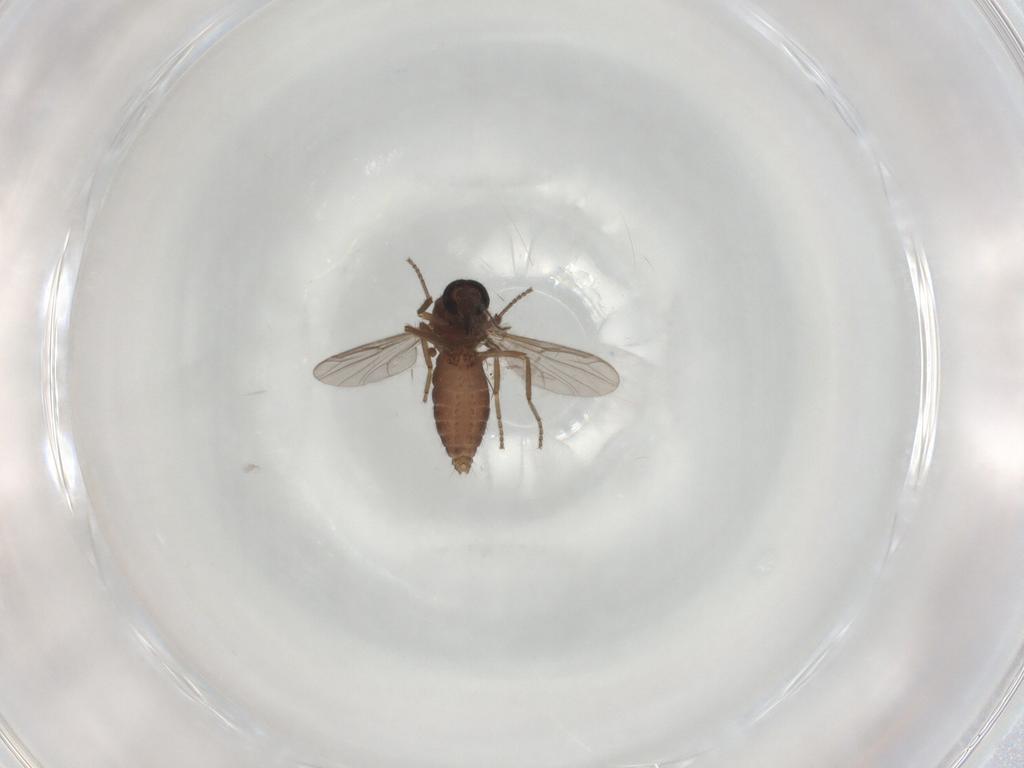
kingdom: Animalia
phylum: Arthropoda
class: Insecta
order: Diptera
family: Ceratopogonidae
